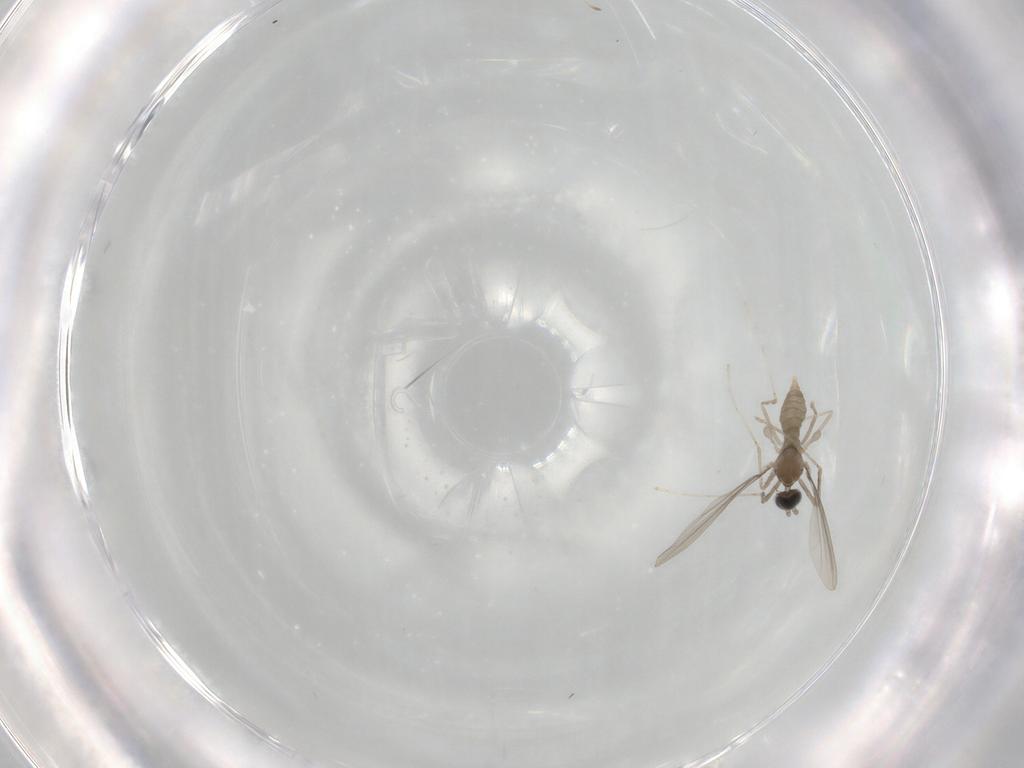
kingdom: Animalia
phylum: Arthropoda
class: Insecta
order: Diptera
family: Cecidomyiidae
